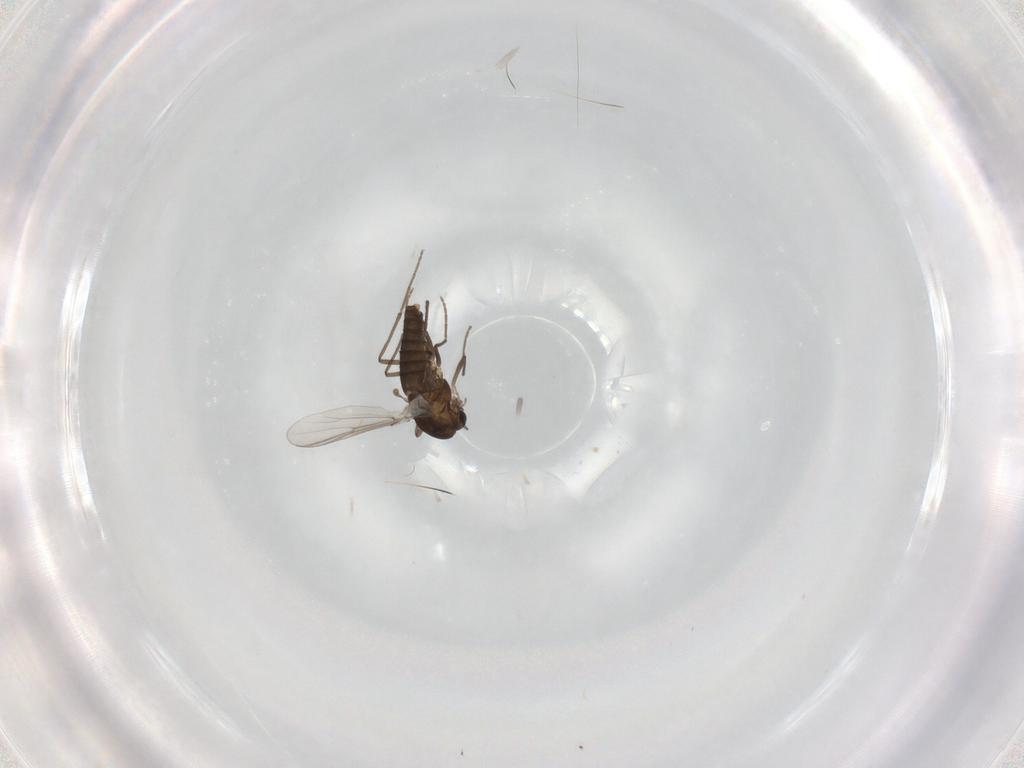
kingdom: Animalia
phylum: Arthropoda
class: Insecta
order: Diptera
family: Chironomidae
